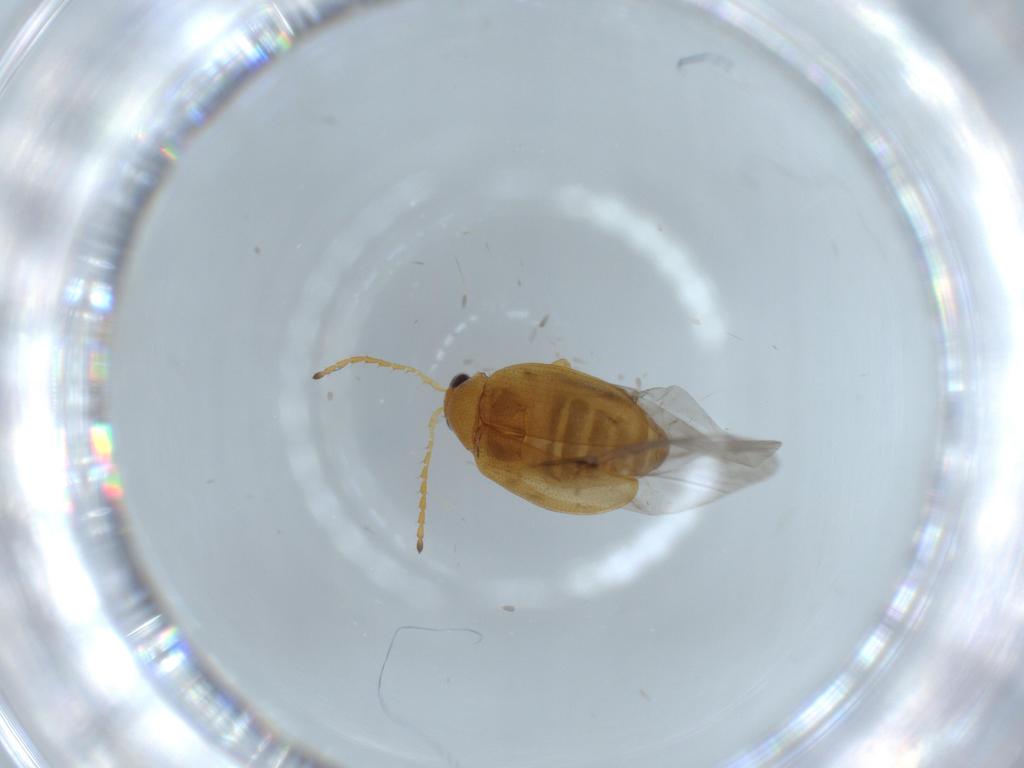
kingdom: Animalia
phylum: Arthropoda
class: Insecta
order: Coleoptera
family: Chrysomelidae
